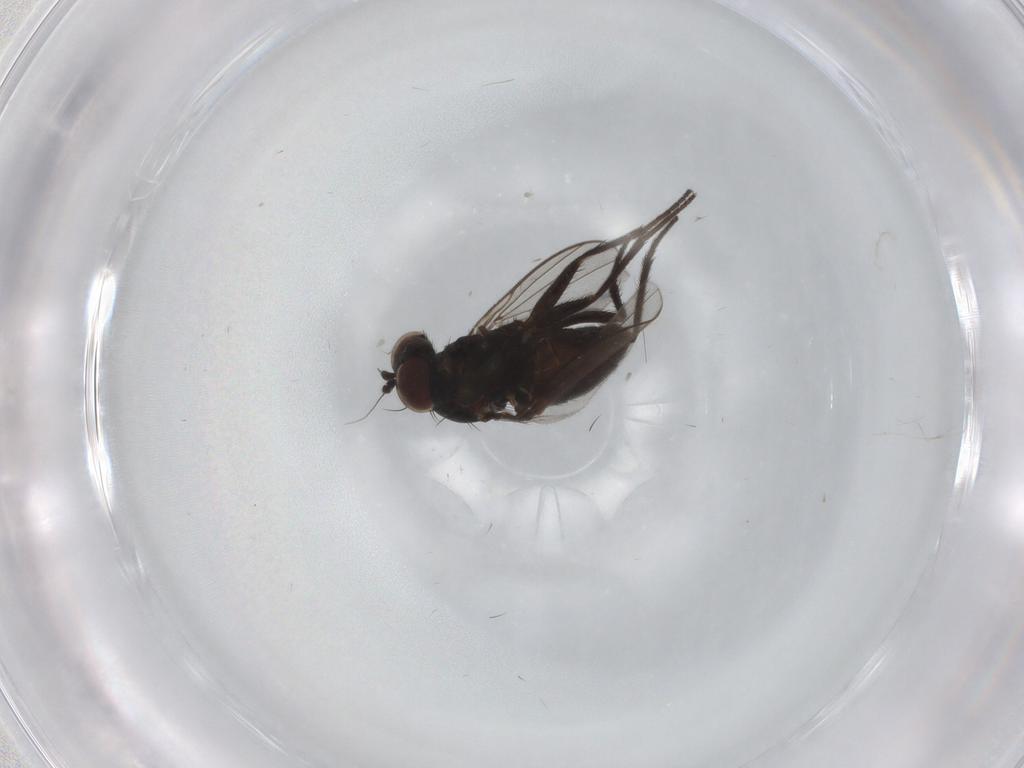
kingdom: Animalia
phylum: Arthropoda
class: Insecta
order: Diptera
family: Dolichopodidae
